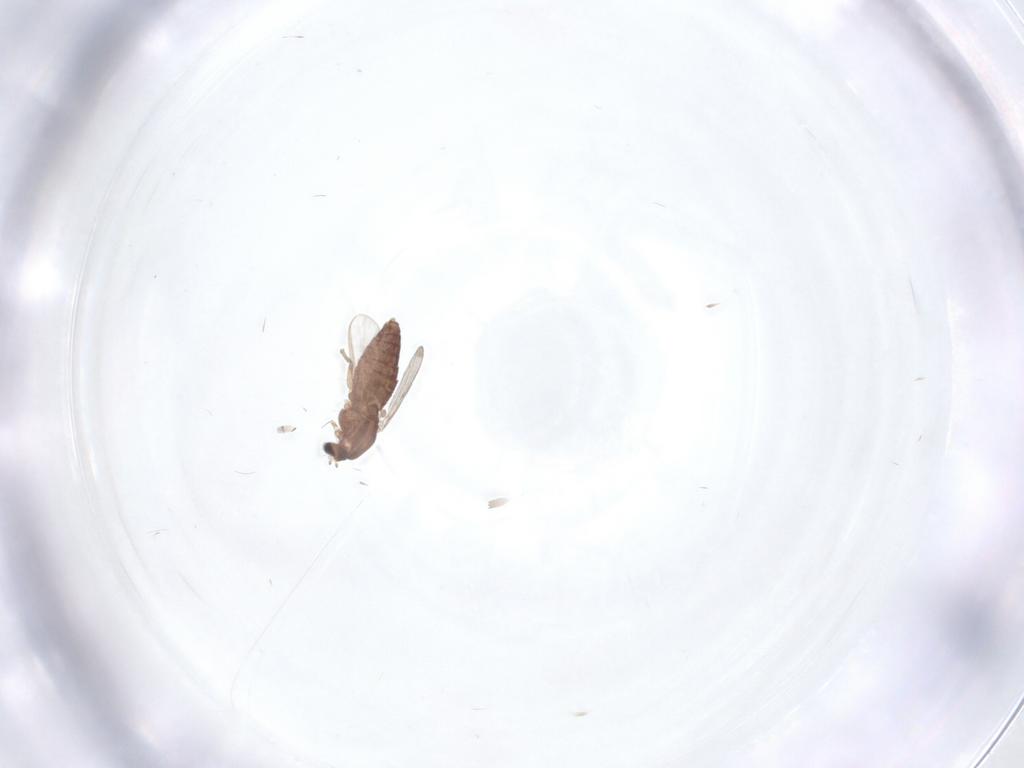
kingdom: Animalia
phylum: Arthropoda
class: Insecta
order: Diptera
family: Chironomidae
